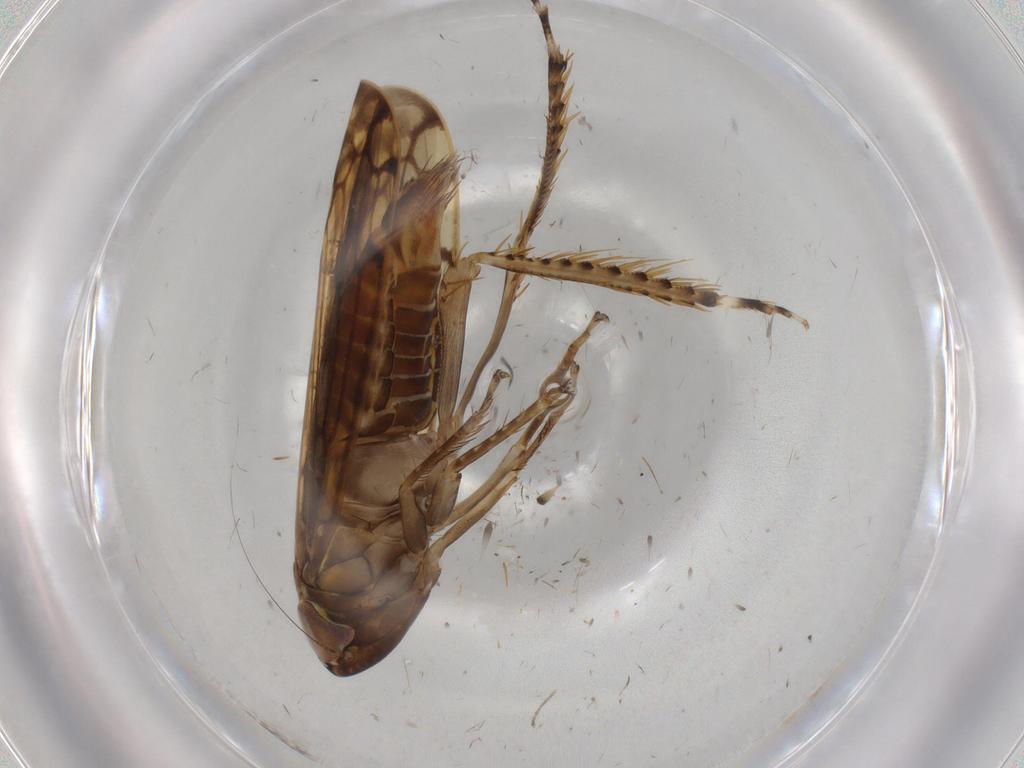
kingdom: Animalia
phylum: Arthropoda
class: Insecta
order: Hemiptera
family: Cicadellidae
